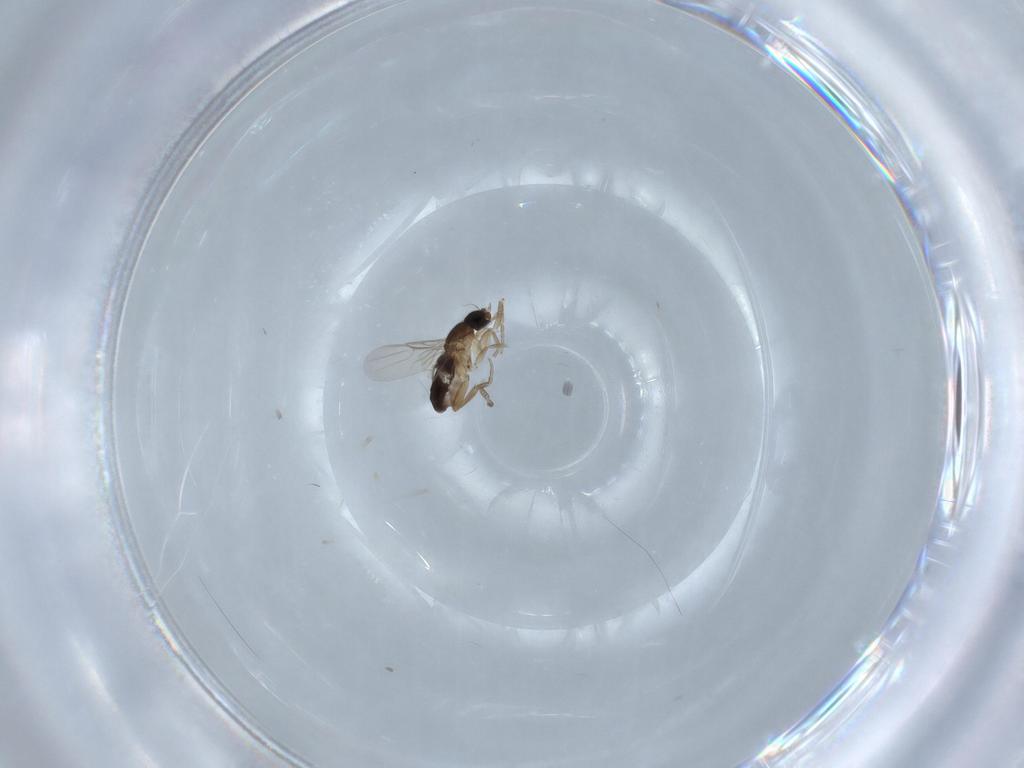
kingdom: Animalia
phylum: Arthropoda
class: Insecta
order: Diptera
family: Phoridae
